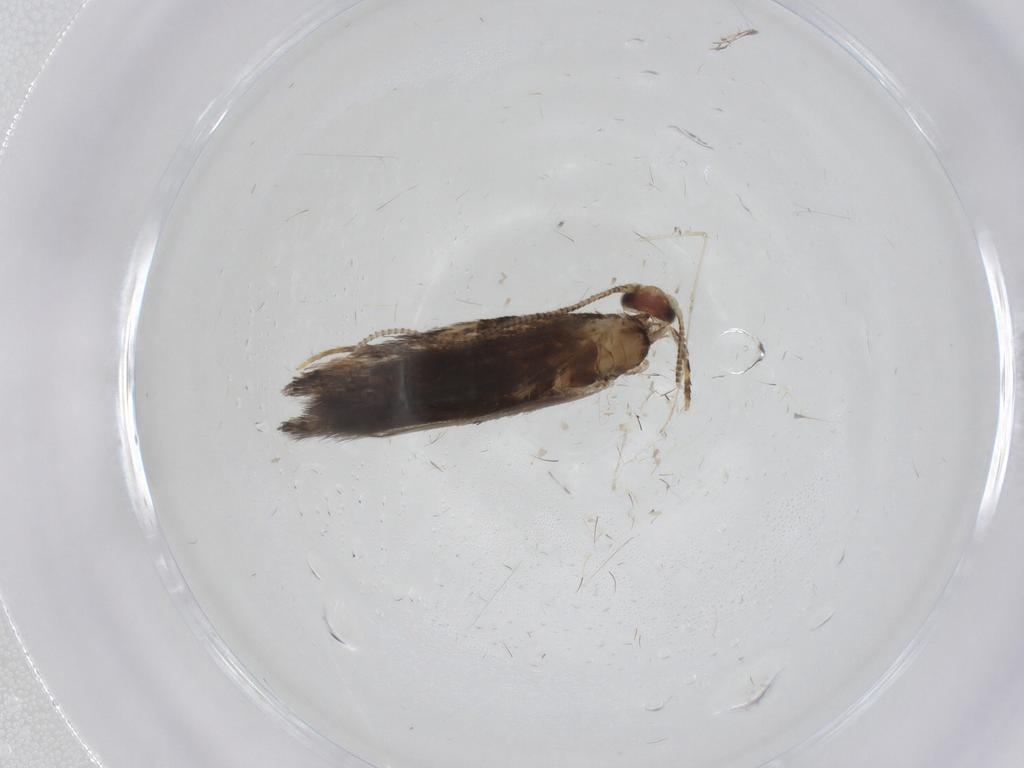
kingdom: Animalia
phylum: Arthropoda
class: Insecta
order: Lepidoptera
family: Tineidae
